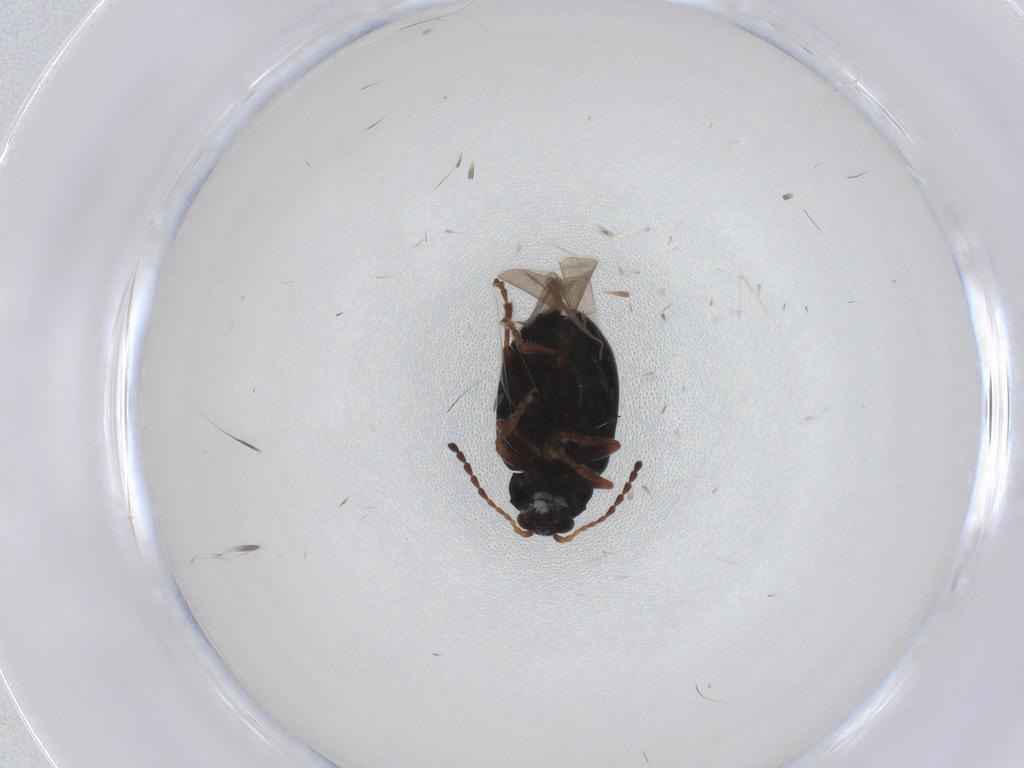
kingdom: Animalia
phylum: Arthropoda
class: Insecta
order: Coleoptera
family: Chrysomelidae
